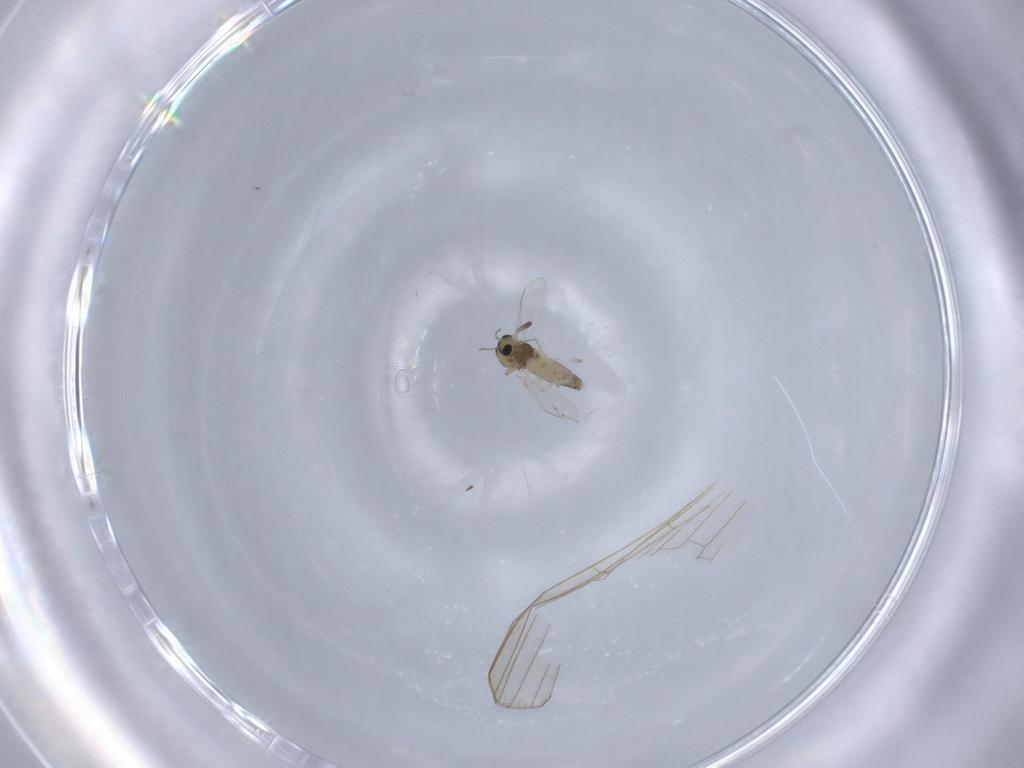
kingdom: Animalia
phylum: Arthropoda
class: Insecta
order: Diptera
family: Chironomidae
